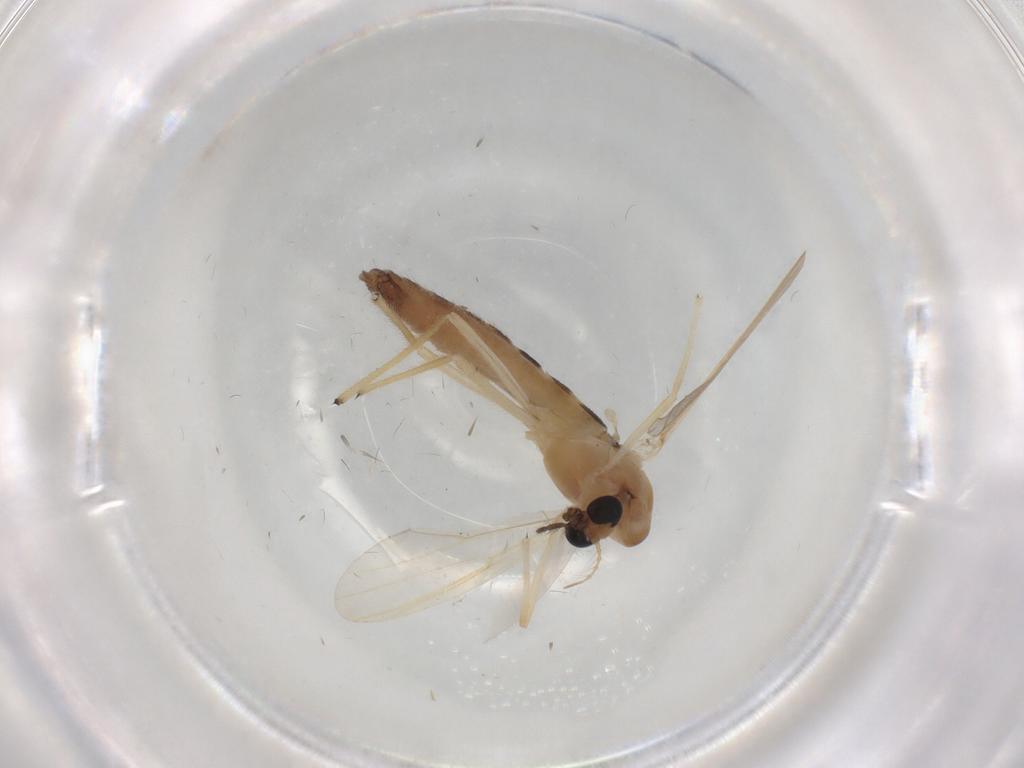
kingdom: Animalia
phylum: Arthropoda
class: Insecta
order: Diptera
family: Chironomidae
